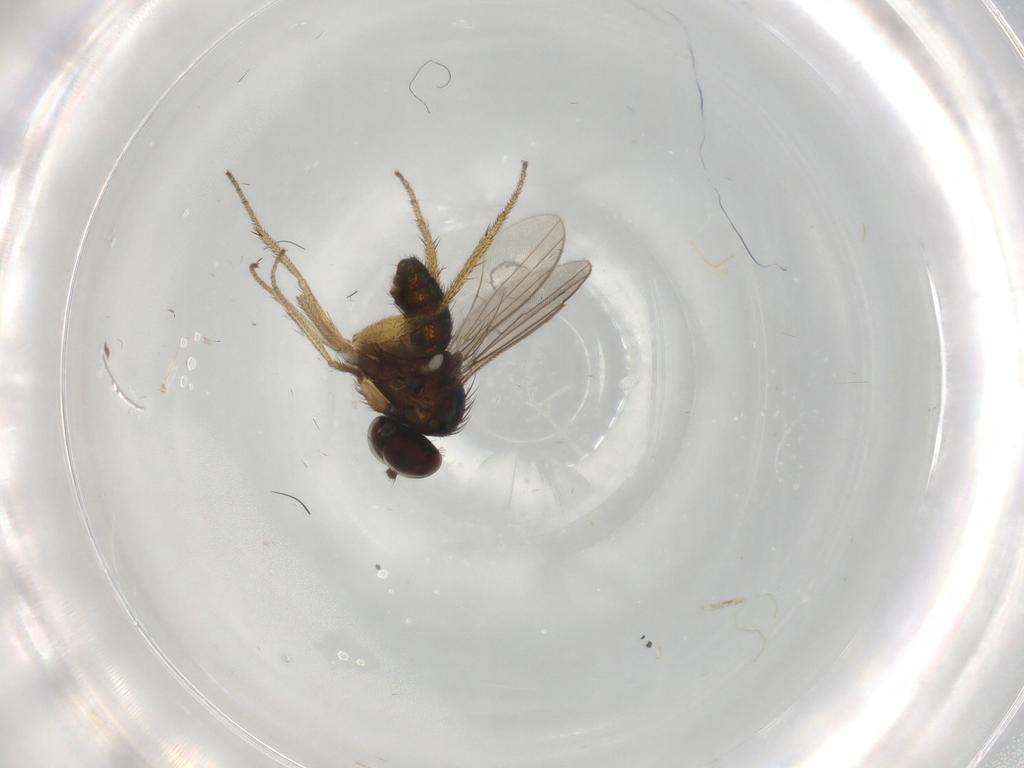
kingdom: Animalia
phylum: Arthropoda
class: Insecta
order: Diptera
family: Dolichopodidae
